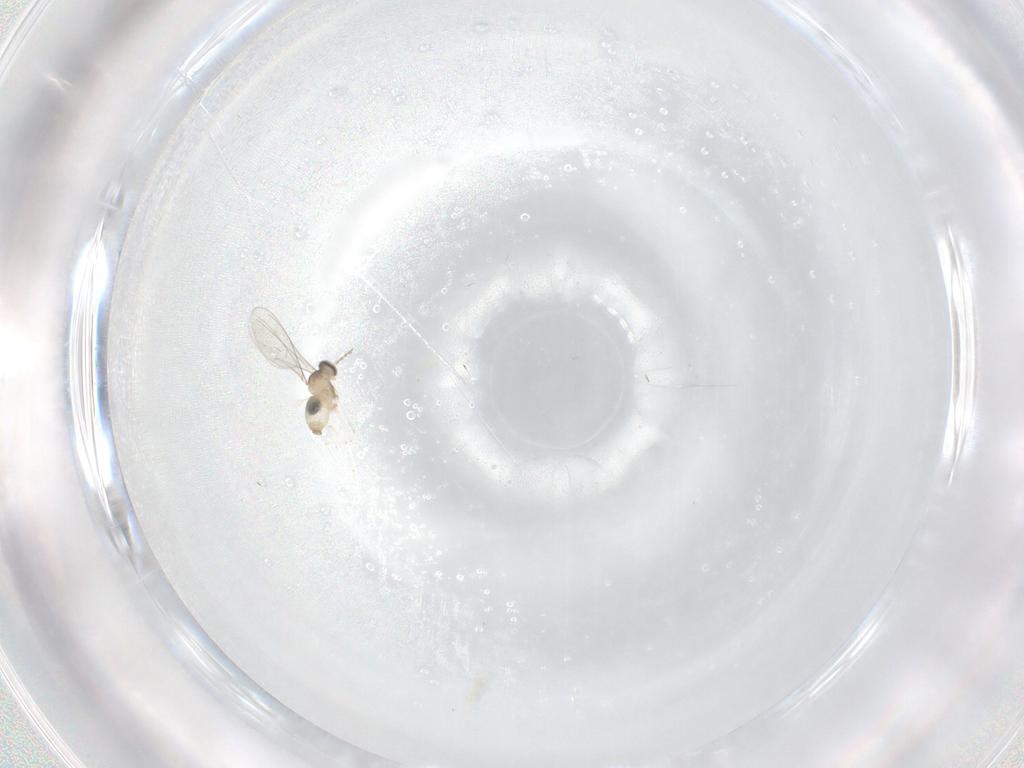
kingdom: Animalia
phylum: Arthropoda
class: Insecta
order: Diptera
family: Cecidomyiidae
